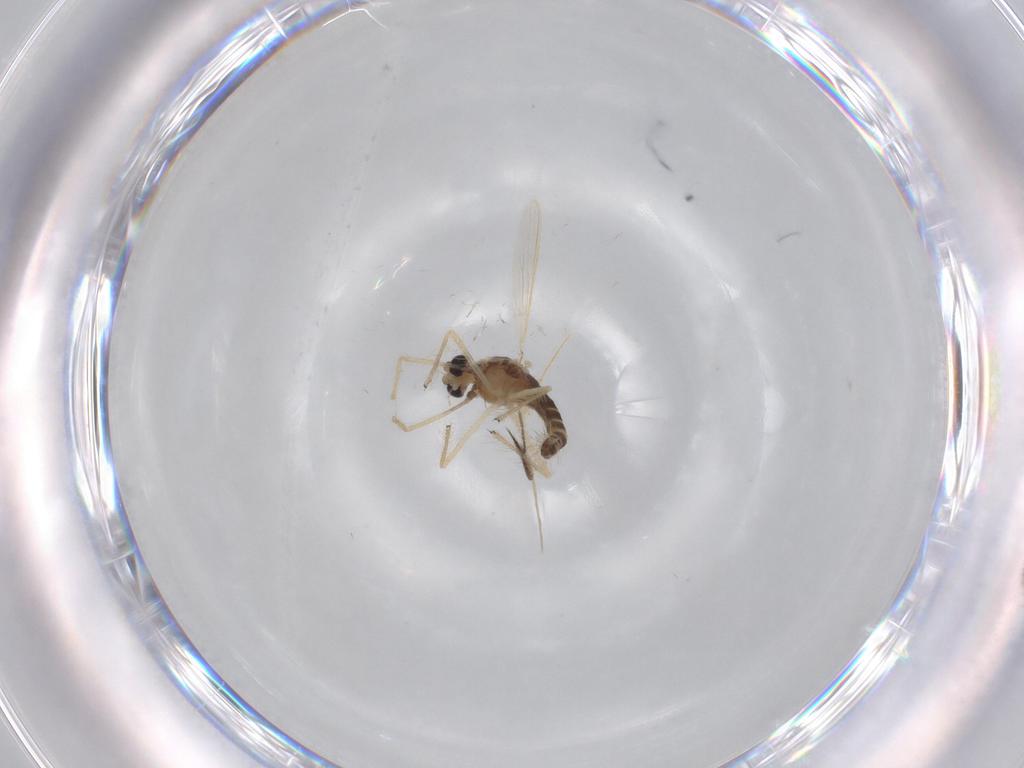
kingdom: Animalia
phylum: Arthropoda
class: Insecta
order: Diptera
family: Chironomidae
